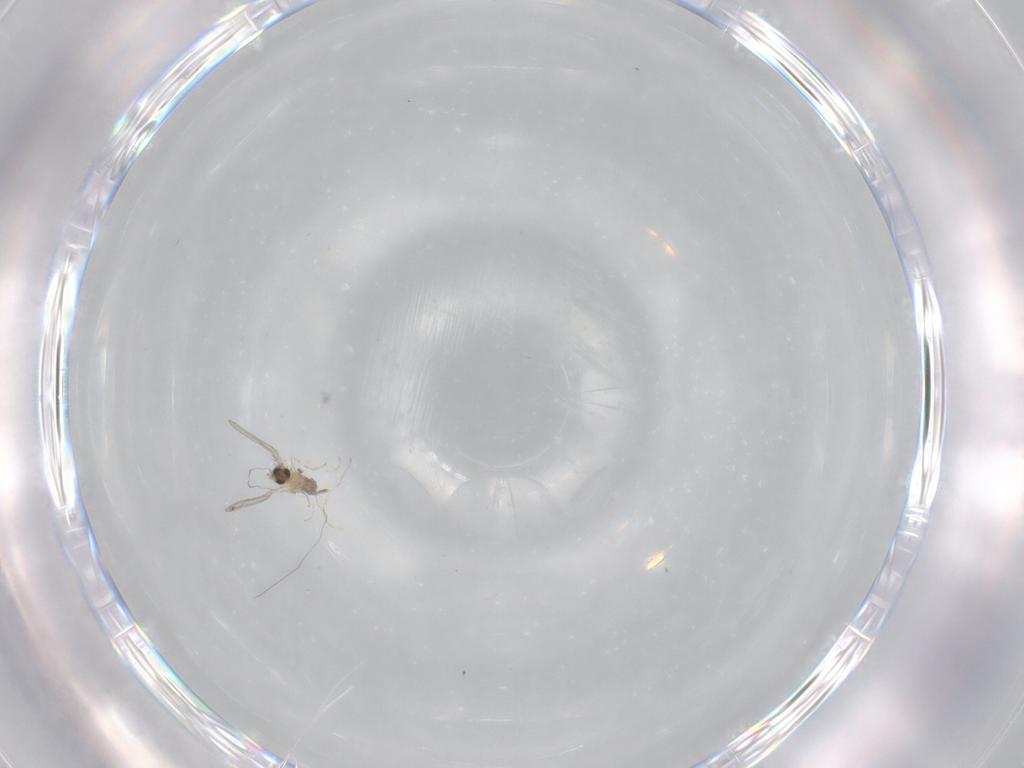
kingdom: Animalia
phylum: Arthropoda
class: Insecta
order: Diptera
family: Cecidomyiidae
